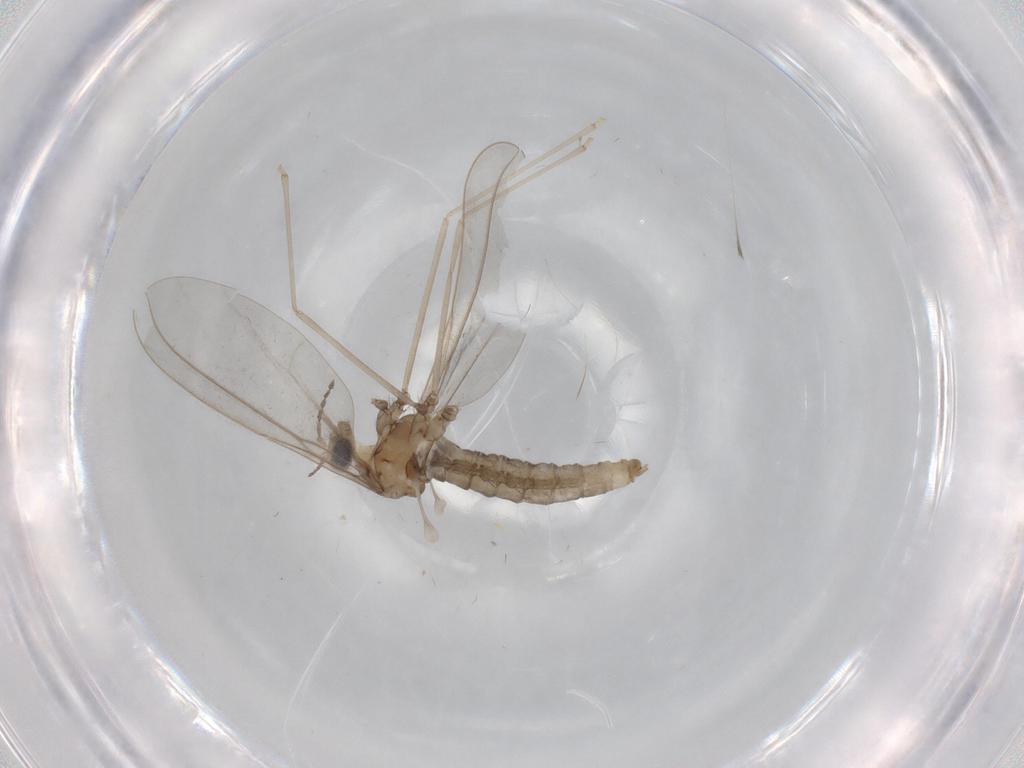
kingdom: Animalia
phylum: Arthropoda
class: Insecta
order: Diptera
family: Cecidomyiidae
